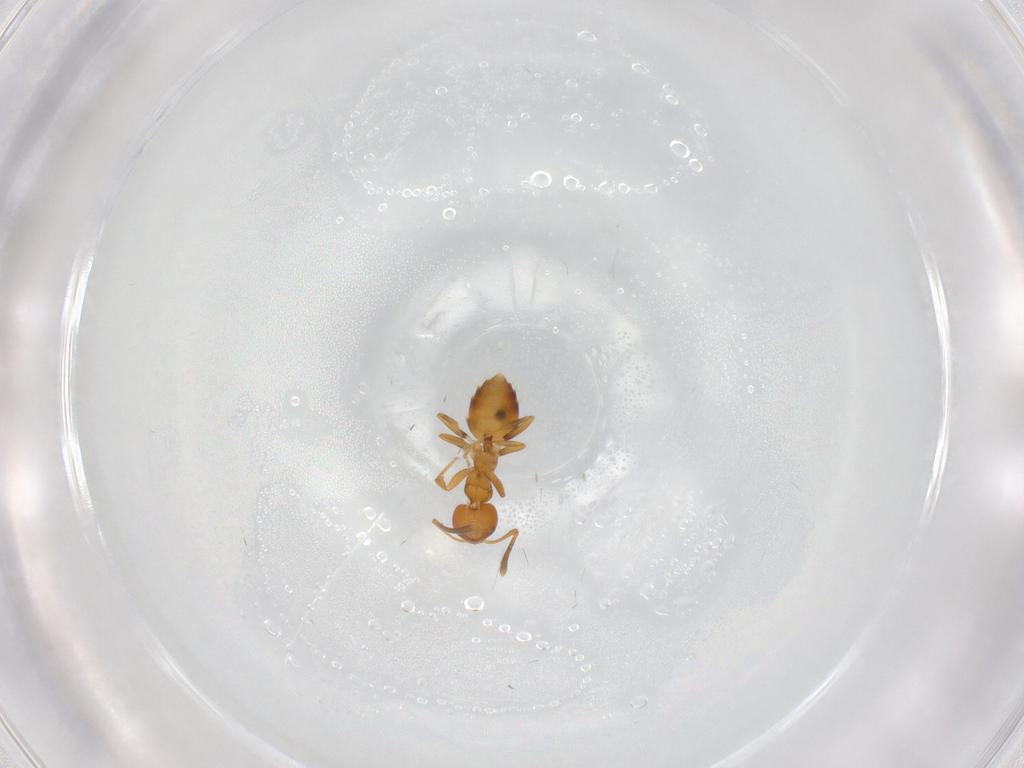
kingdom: Animalia
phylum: Arthropoda
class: Insecta
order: Hymenoptera
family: Scelionidae
